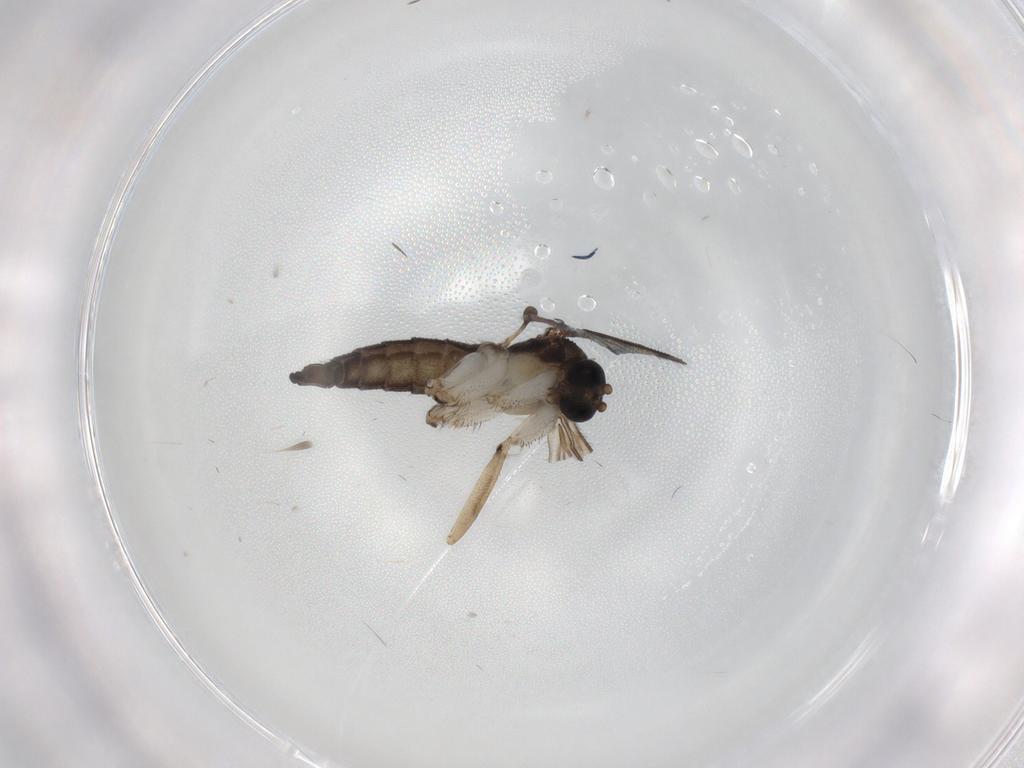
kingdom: Animalia
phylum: Arthropoda
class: Insecta
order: Diptera
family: Sciaridae
